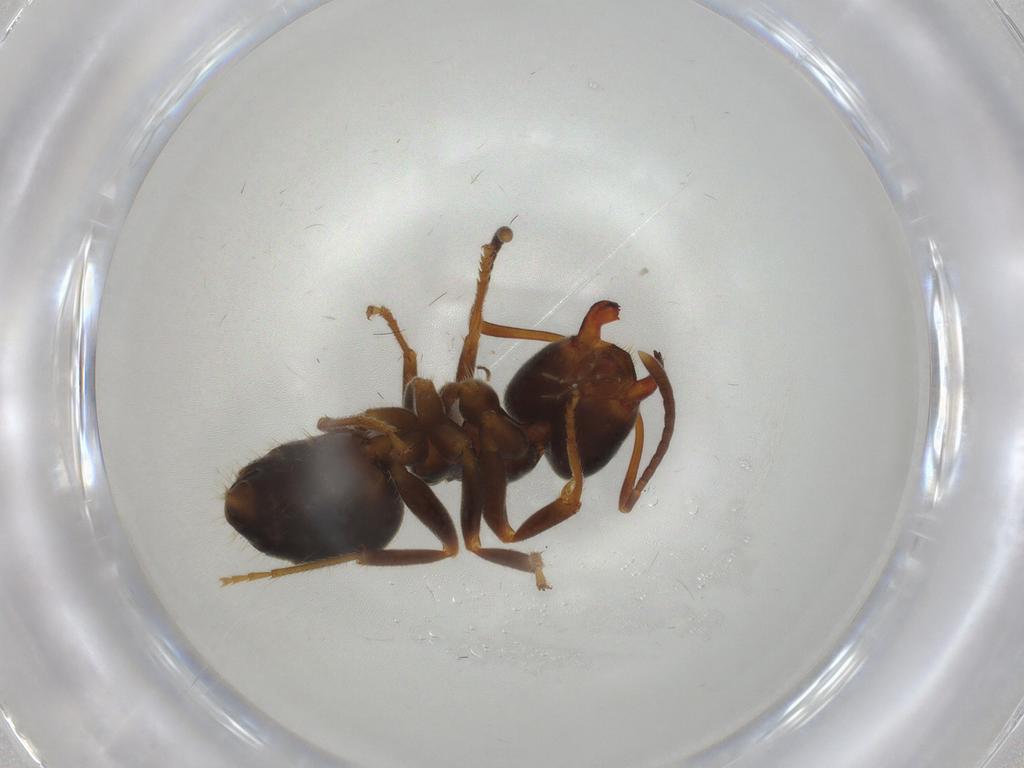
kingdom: Animalia
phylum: Arthropoda
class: Insecta
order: Hymenoptera
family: Formicidae
